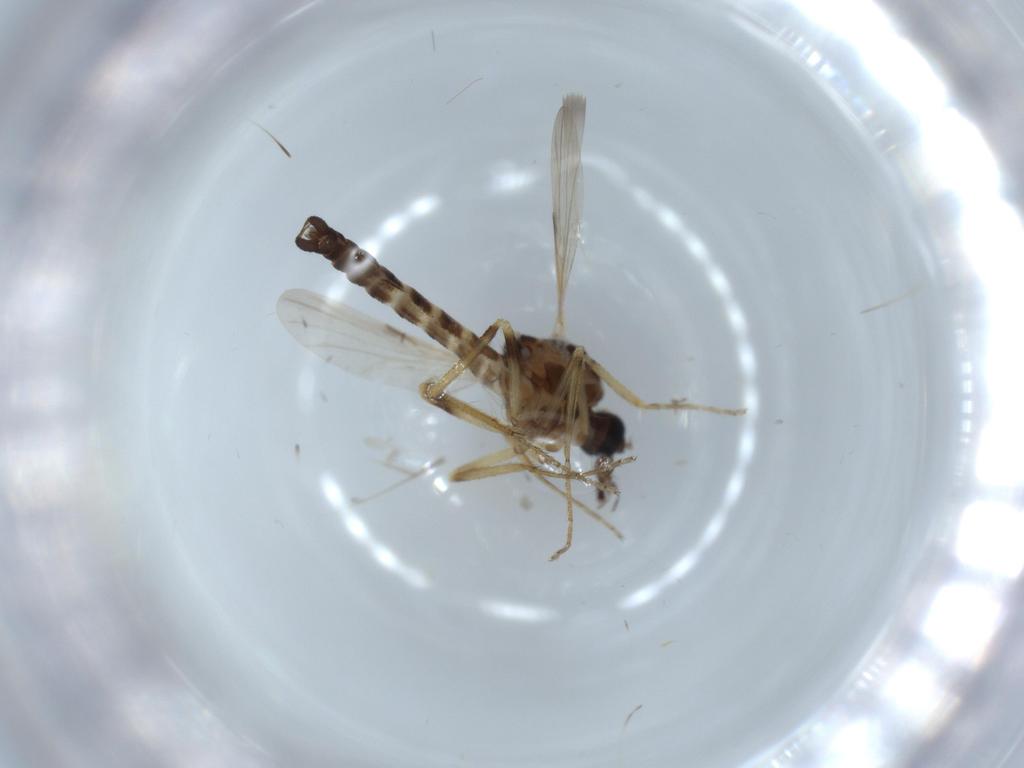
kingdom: Animalia
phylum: Arthropoda
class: Insecta
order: Diptera
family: Ceratopogonidae
